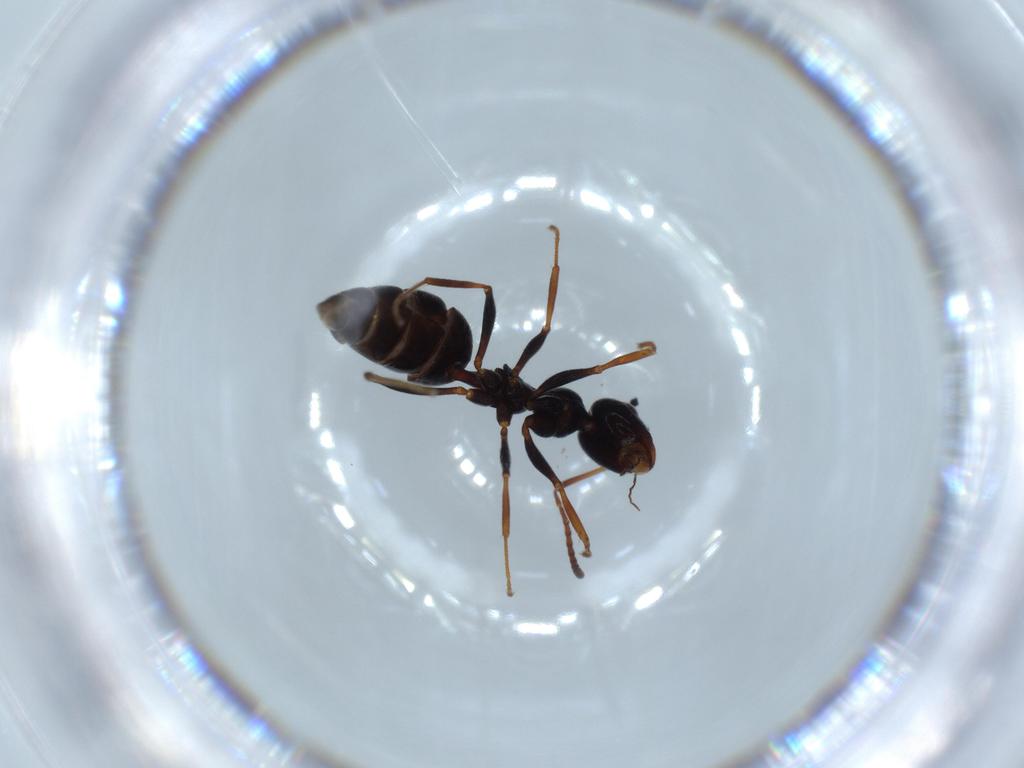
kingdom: Animalia
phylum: Arthropoda
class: Insecta
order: Hymenoptera
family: Formicidae
